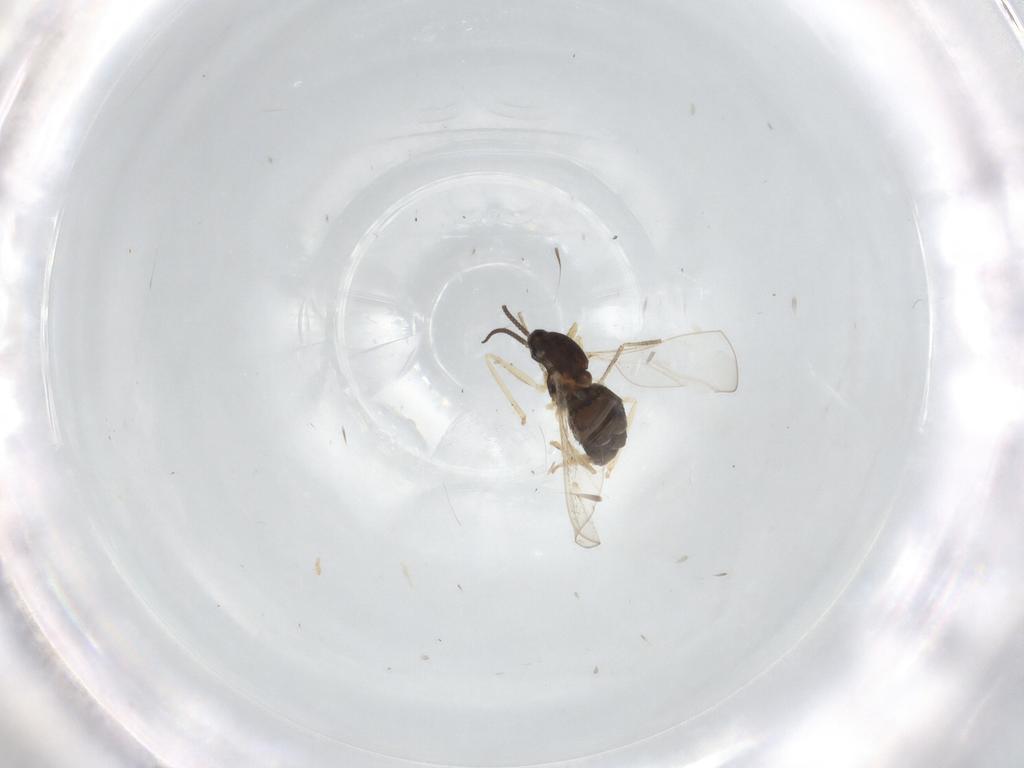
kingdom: Animalia
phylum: Arthropoda
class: Insecta
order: Diptera
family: Cecidomyiidae
